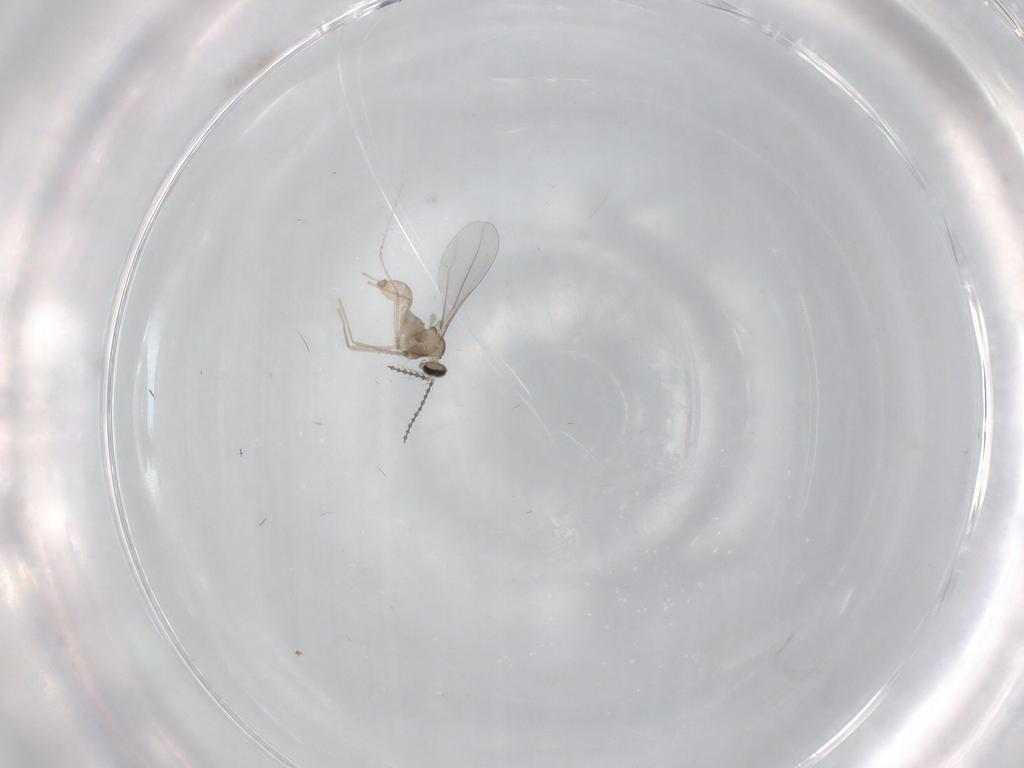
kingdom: Animalia
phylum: Arthropoda
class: Insecta
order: Diptera
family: Cecidomyiidae
